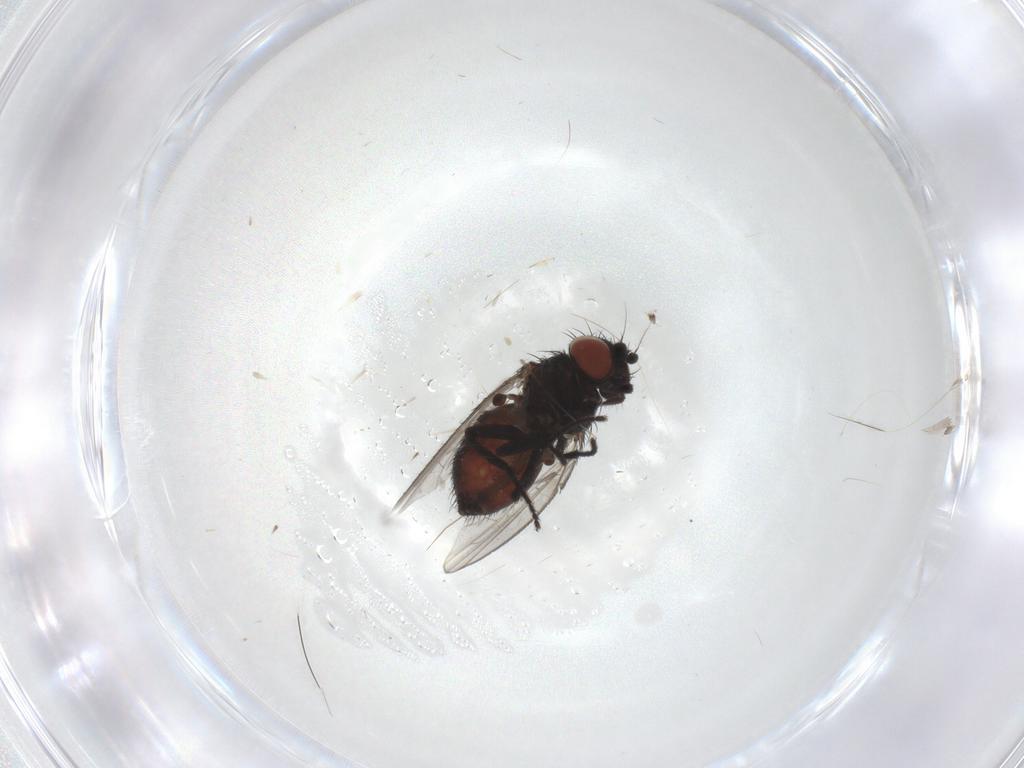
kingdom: Animalia
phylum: Arthropoda
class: Insecta
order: Diptera
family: Milichiidae
